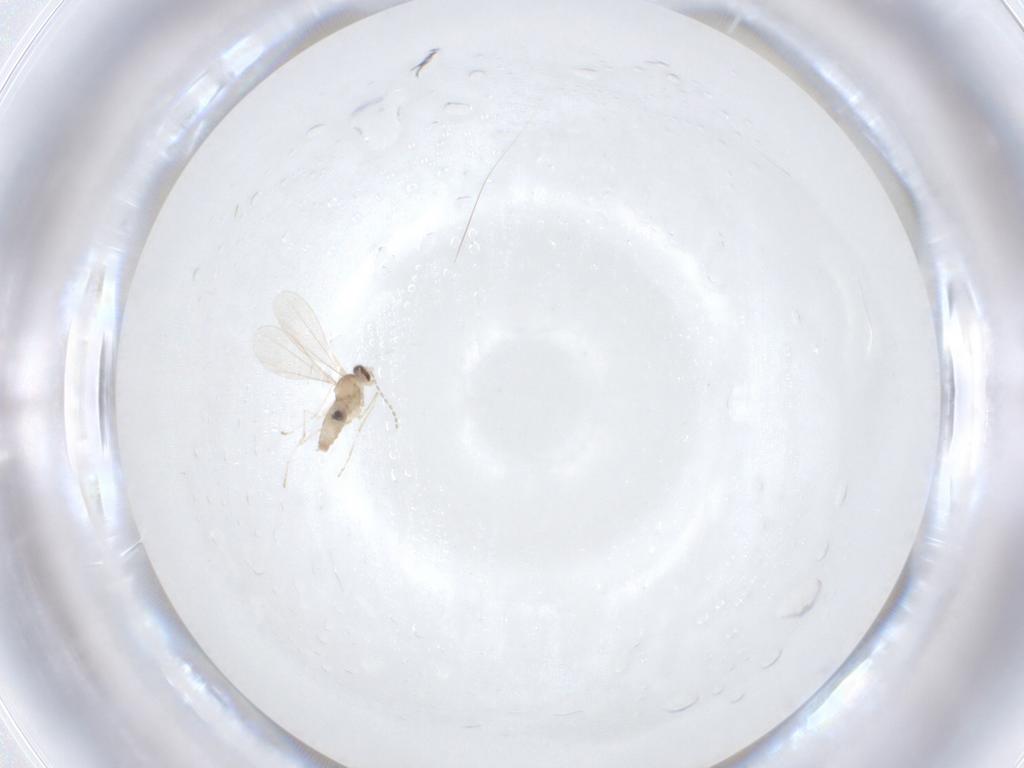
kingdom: Animalia
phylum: Arthropoda
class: Insecta
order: Diptera
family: Cecidomyiidae
